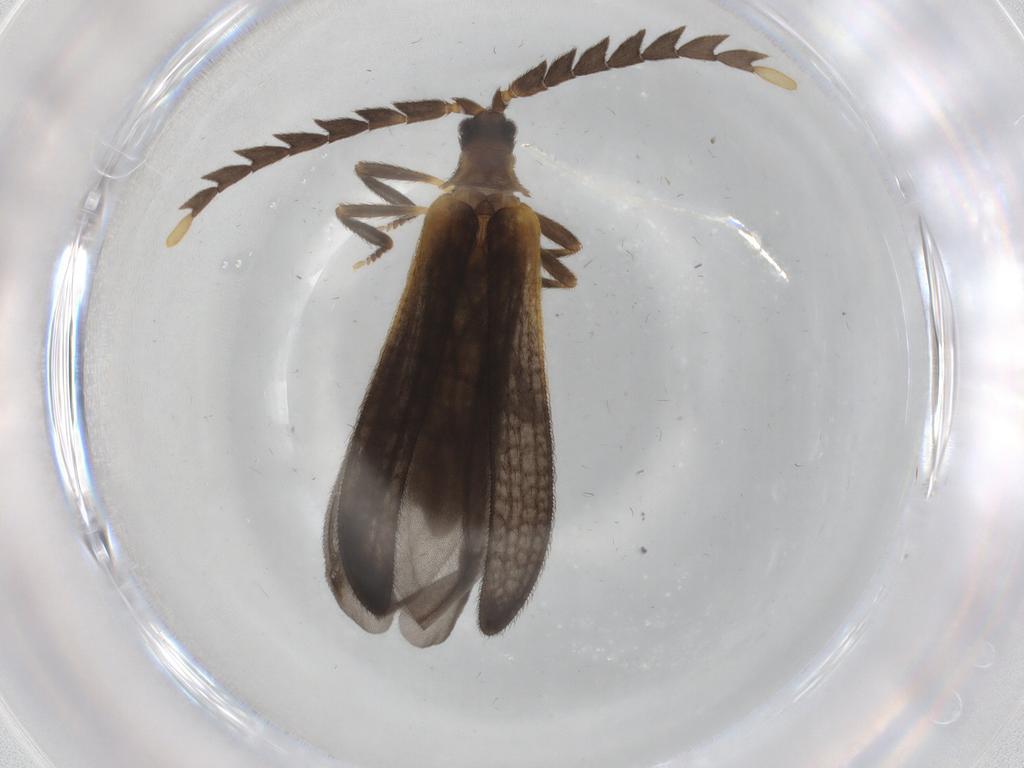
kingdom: Animalia
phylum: Arthropoda
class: Insecta
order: Coleoptera
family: Lycidae
